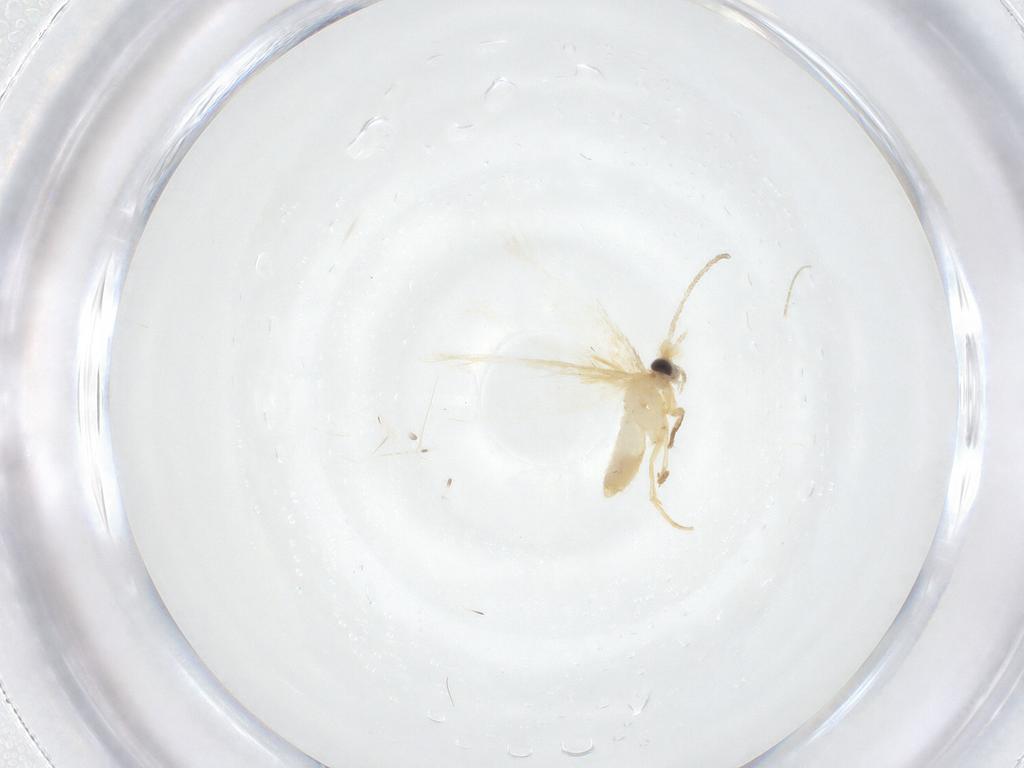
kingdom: Animalia
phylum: Arthropoda
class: Insecta
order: Lepidoptera
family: Nepticulidae
